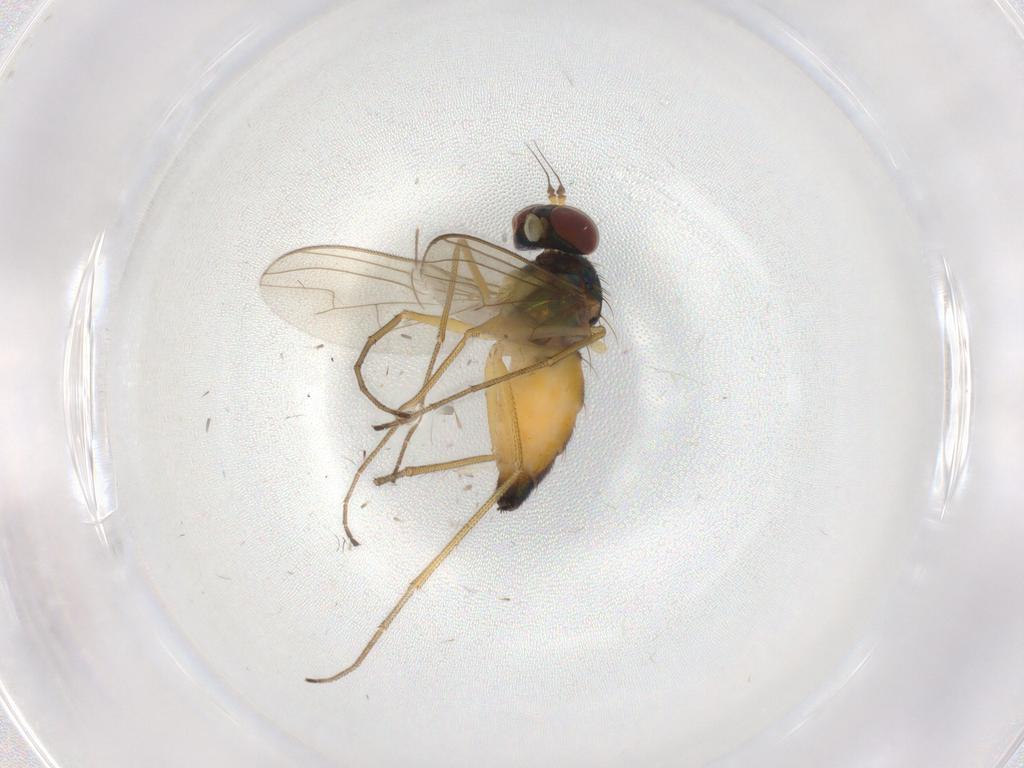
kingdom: Animalia
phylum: Arthropoda
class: Insecta
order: Diptera
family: Dolichopodidae
